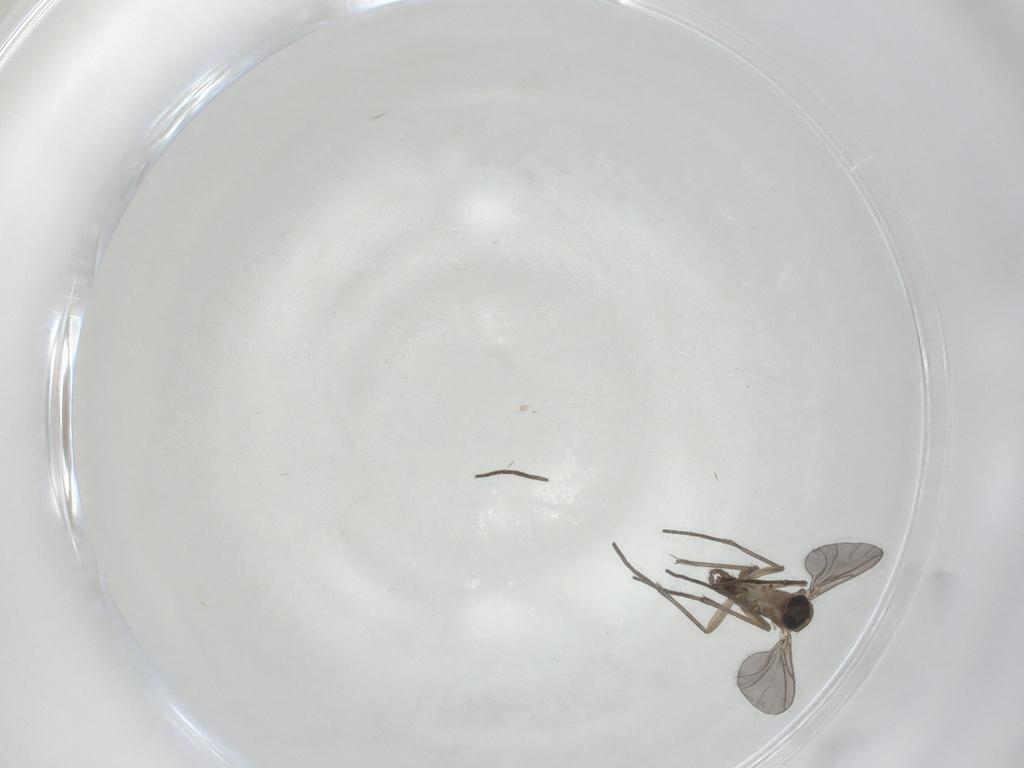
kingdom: Animalia
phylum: Arthropoda
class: Insecta
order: Diptera
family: Sciaridae
